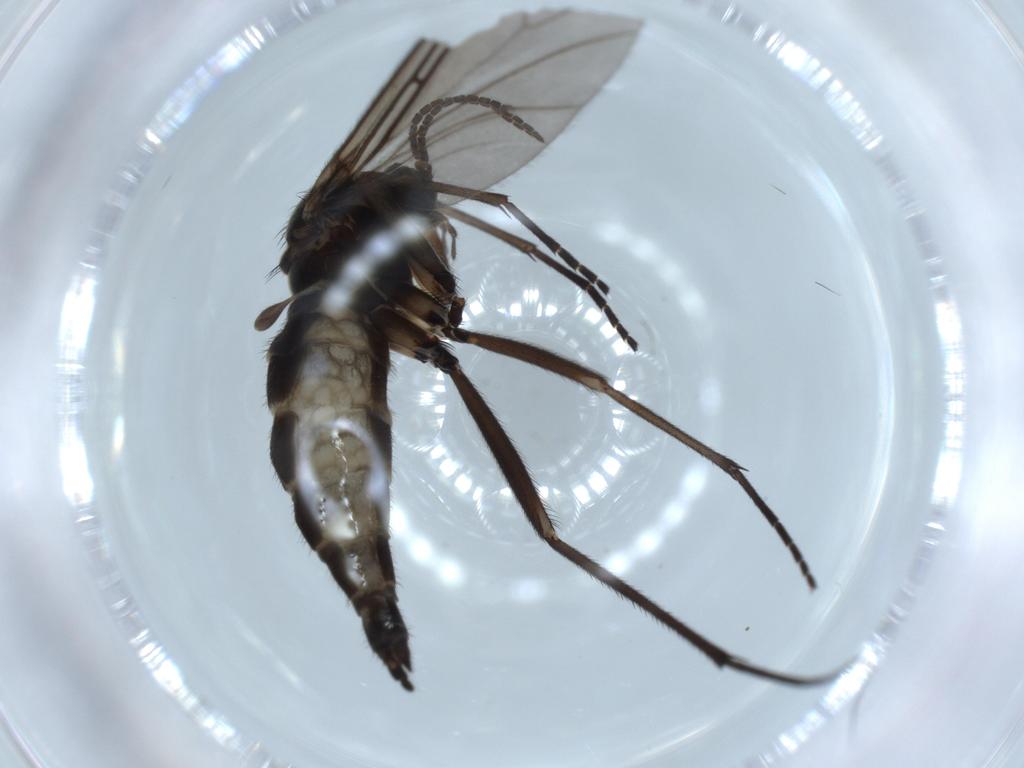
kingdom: Animalia
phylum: Arthropoda
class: Insecta
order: Diptera
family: Sciaridae
